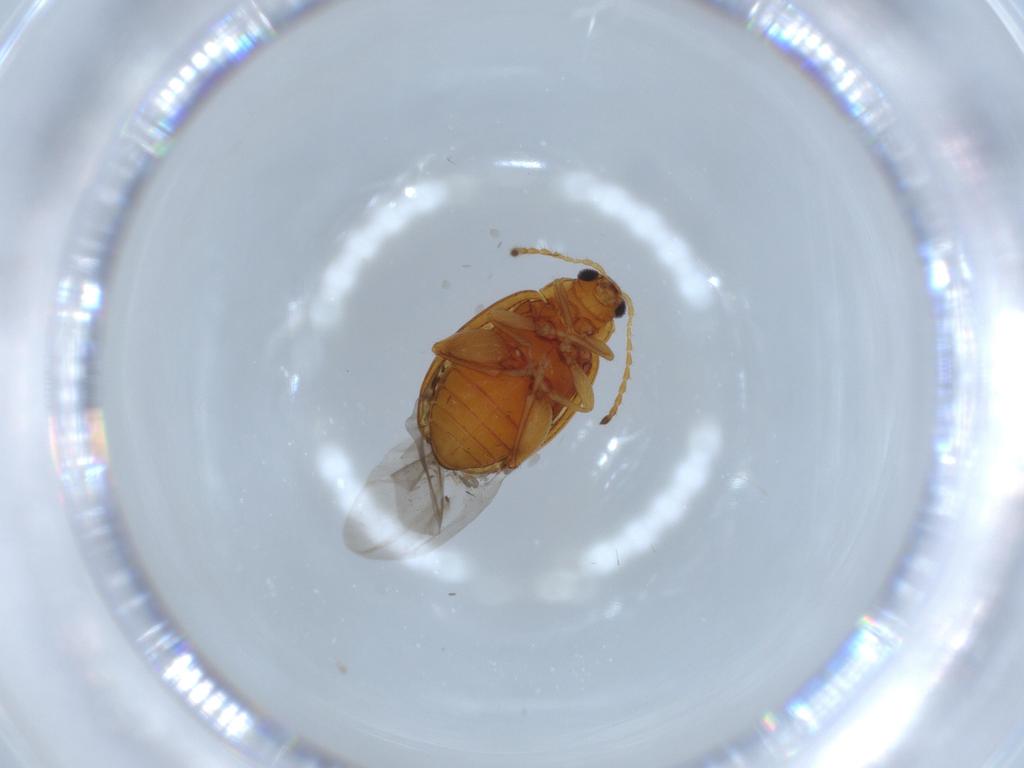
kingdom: Animalia
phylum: Arthropoda
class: Insecta
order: Coleoptera
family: Chrysomelidae
